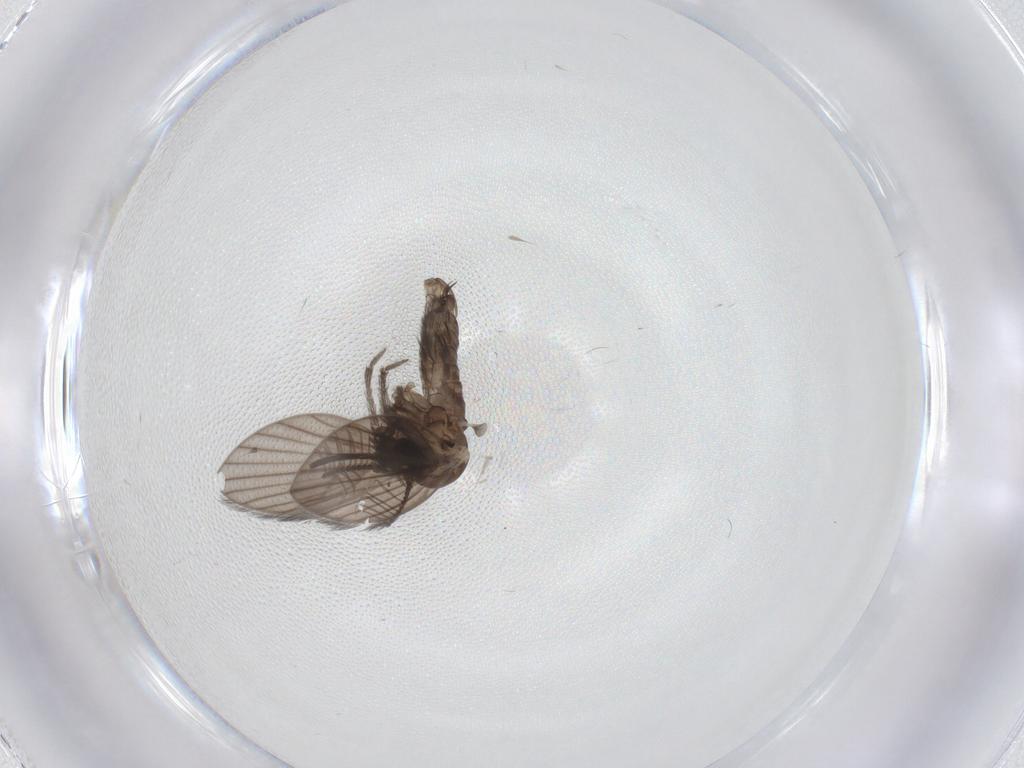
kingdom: Animalia
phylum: Arthropoda
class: Insecta
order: Diptera
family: Psychodidae
